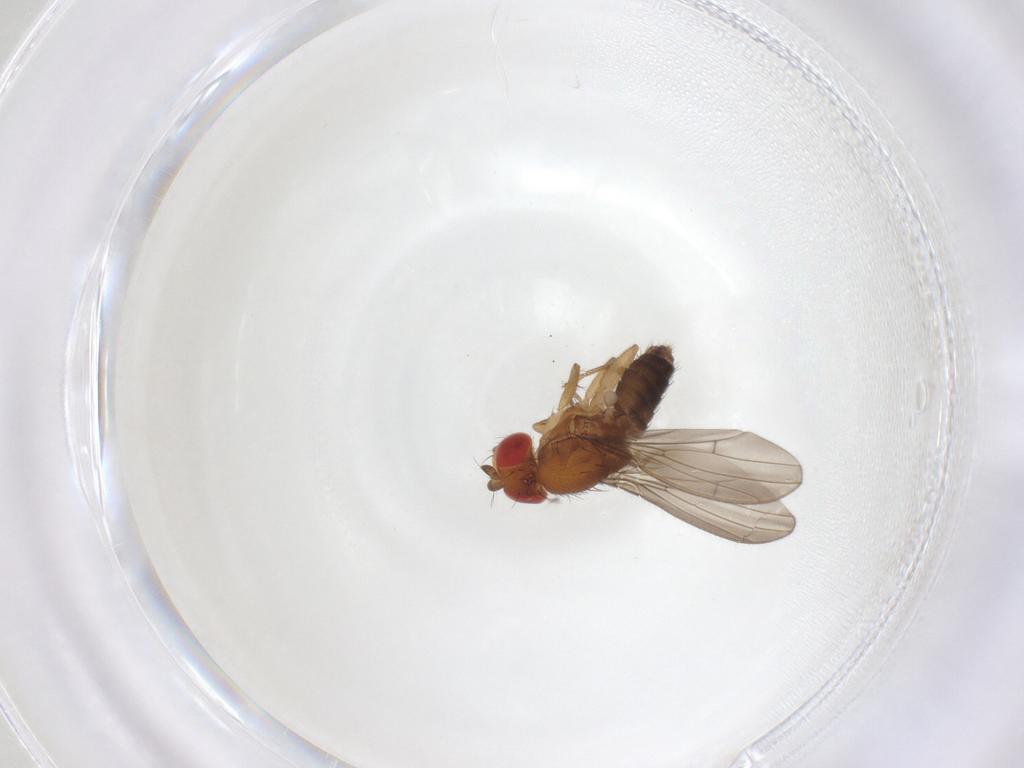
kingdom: Animalia
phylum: Arthropoda
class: Insecta
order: Diptera
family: Drosophilidae
